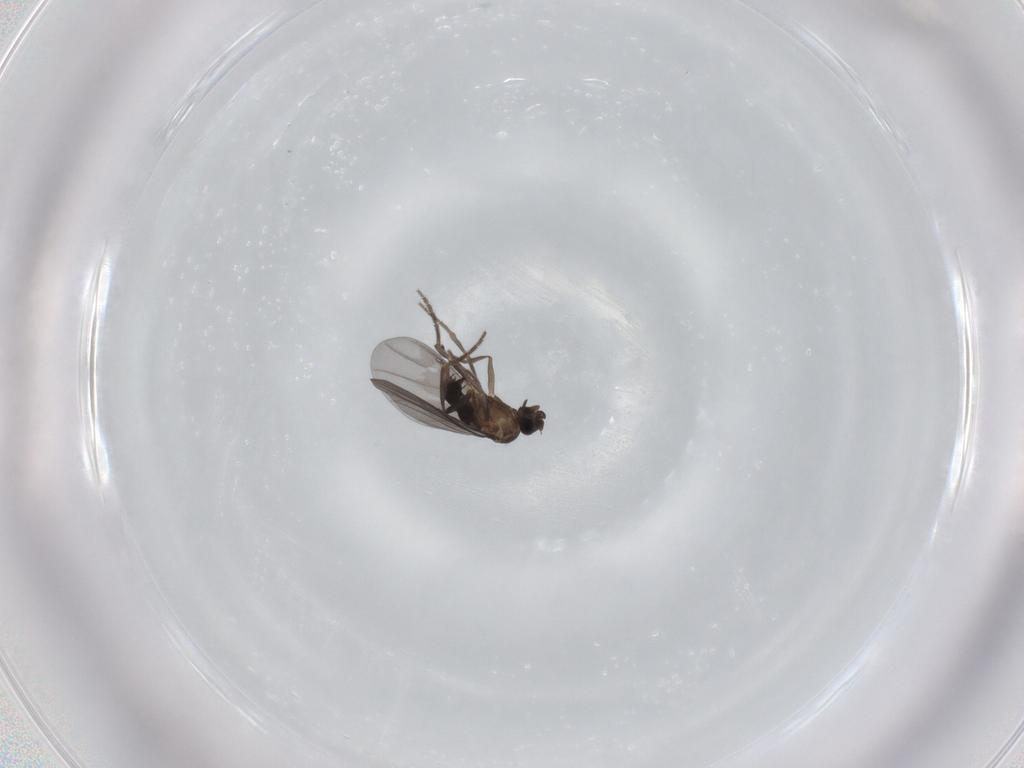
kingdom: Animalia
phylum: Arthropoda
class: Insecta
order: Diptera
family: Phoridae
